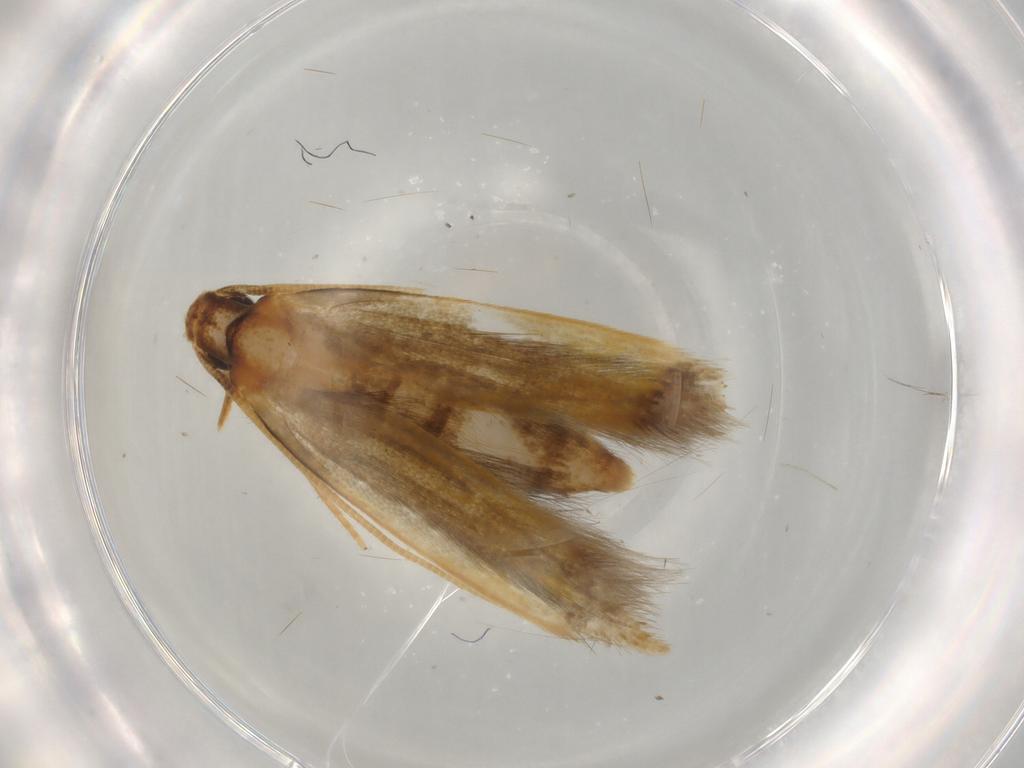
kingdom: Animalia
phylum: Arthropoda
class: Insecta
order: Lepidoptera
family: Tineidae
